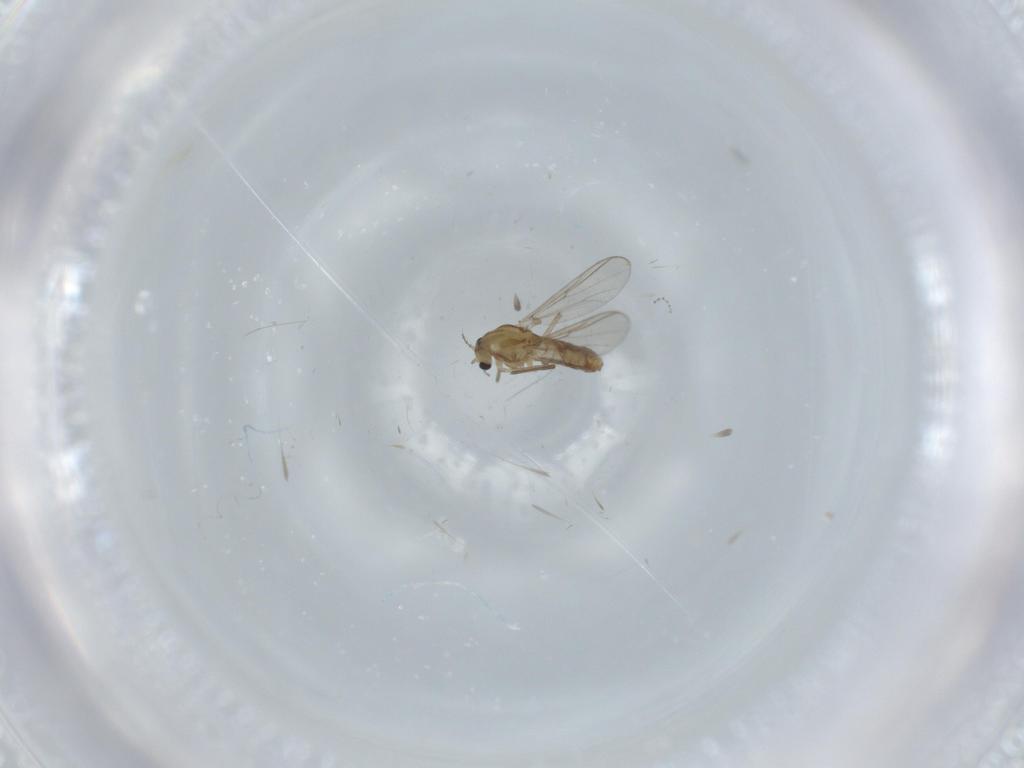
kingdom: Animalia
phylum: Arthropoda
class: Insecta
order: Diptera
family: Chironomidae
